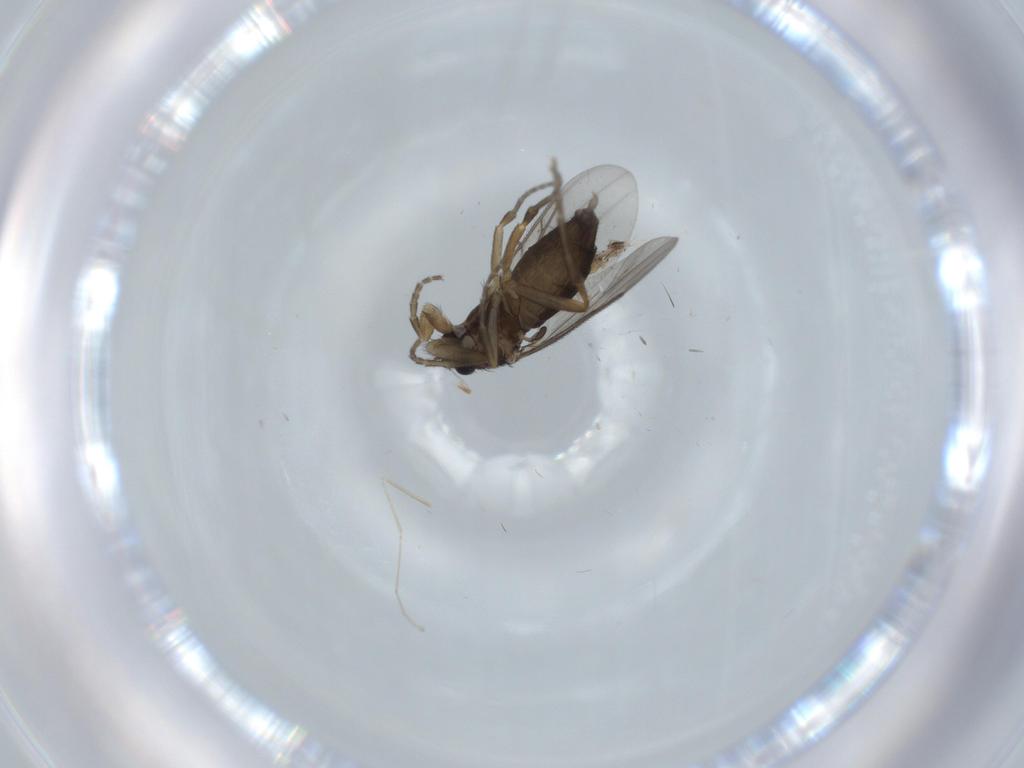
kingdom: Animalia
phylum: Arthropoda
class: Insecta
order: Diptera
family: Cecidomyiidae
